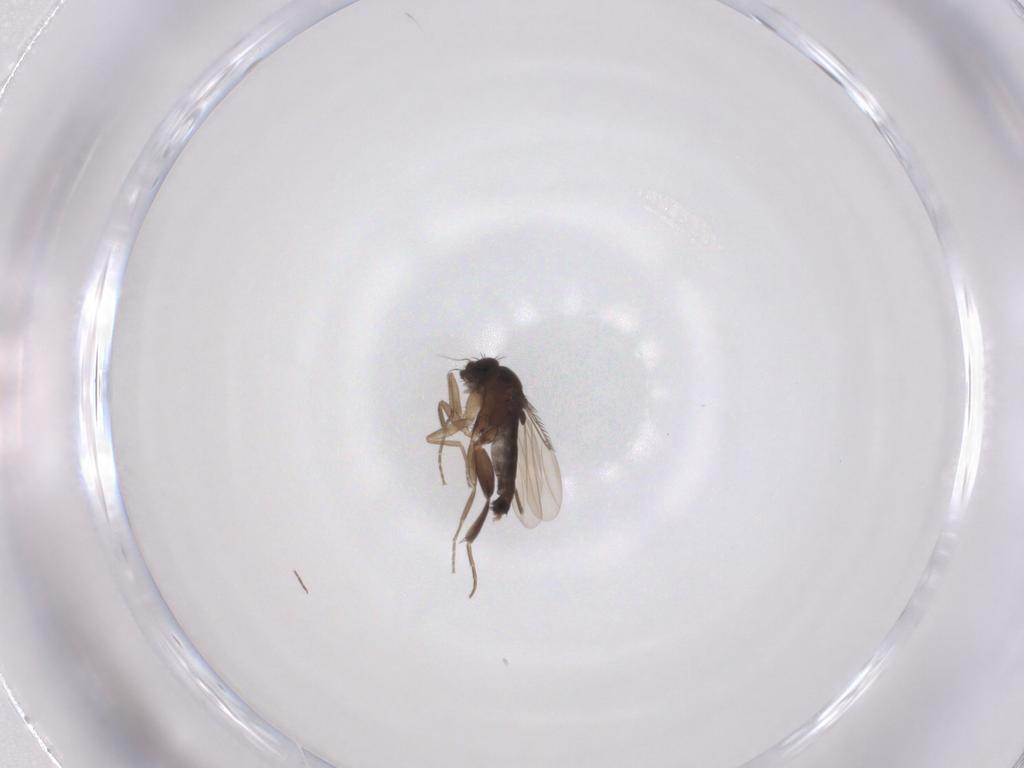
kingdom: Animalia
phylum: Arthropoda
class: Insecta
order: Diptera
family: Phoridae
